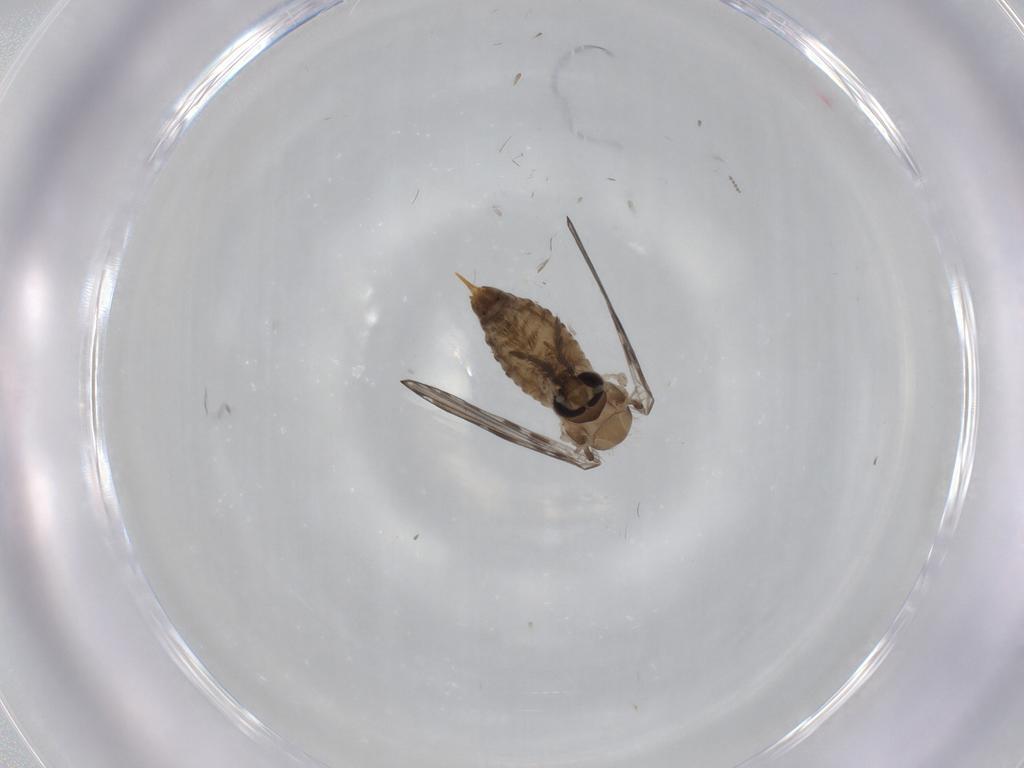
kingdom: Animalia
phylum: Arthropoda
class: Insecta
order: Diptera
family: Psychodidae
